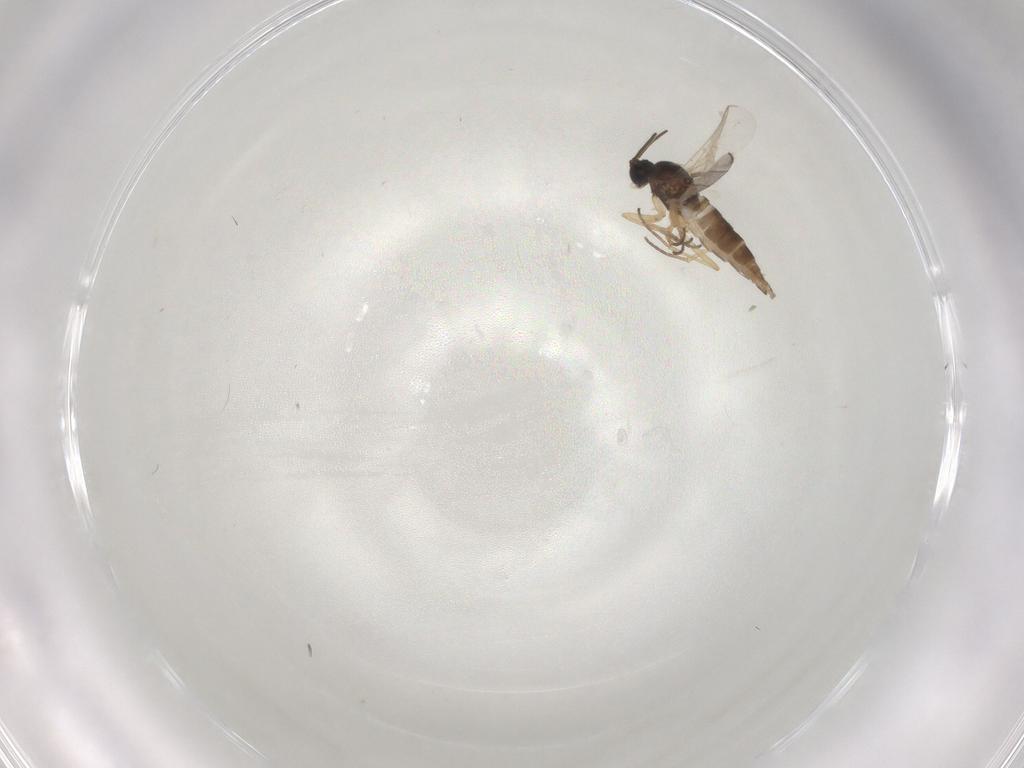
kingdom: Animalia
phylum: Arthropoda
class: Insecta
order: Diptera
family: Sciaridae
